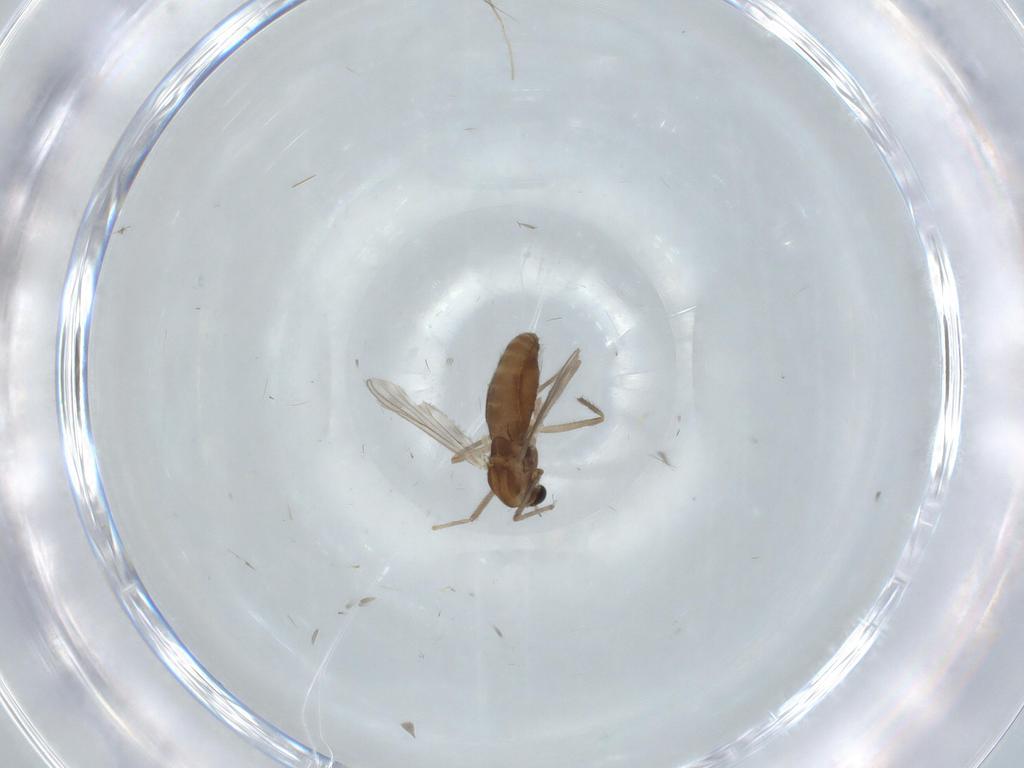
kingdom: Animalia
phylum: Arthropoda
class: Insecta
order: Diptera
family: Chironomidae
